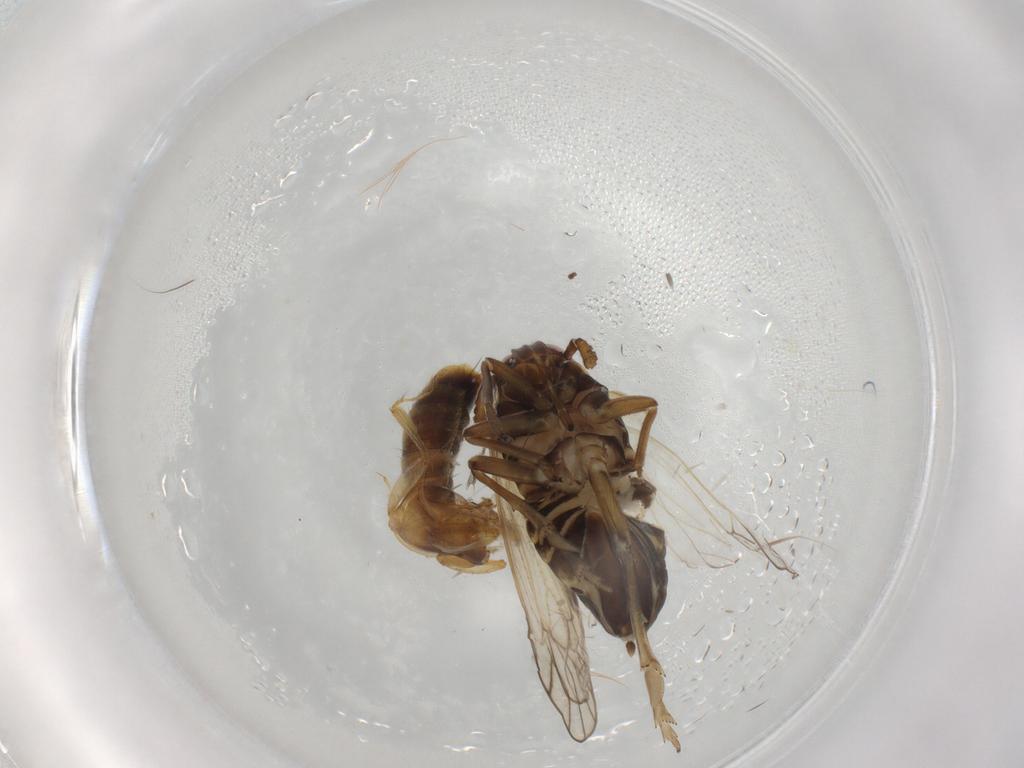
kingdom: Animalia
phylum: Arthropoda
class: Insecta
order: Hemiptera
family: Delphacidae
